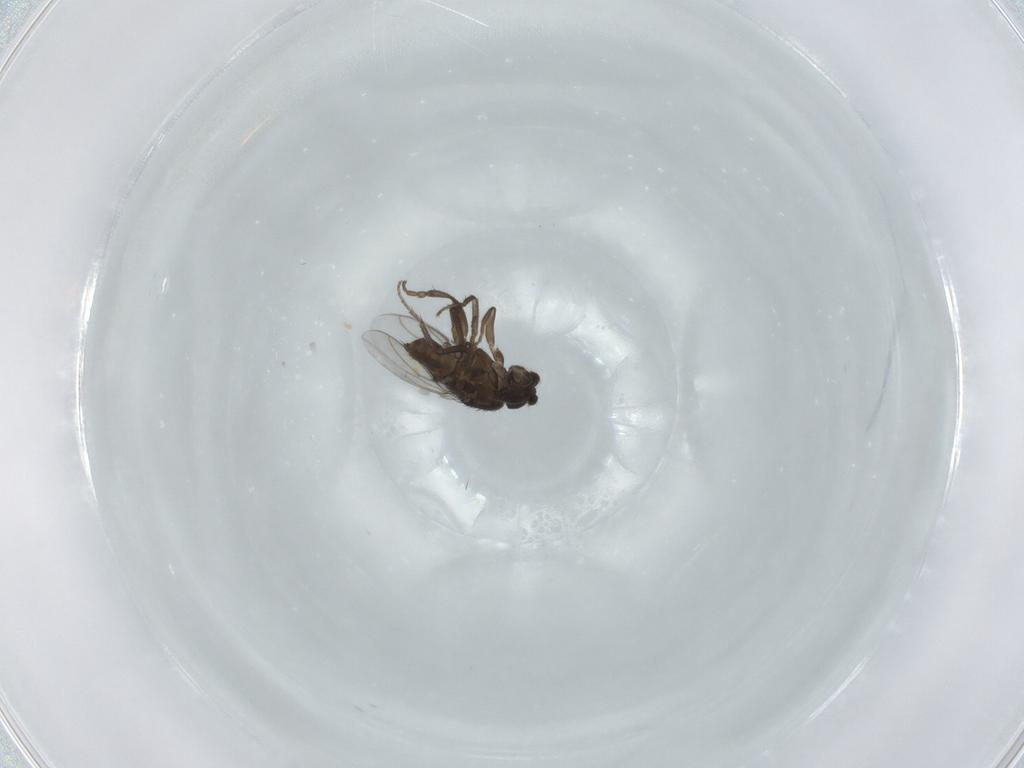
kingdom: Animalia
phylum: Arthropoda
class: Insecta
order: Diptera
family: Sphaeroceridae
